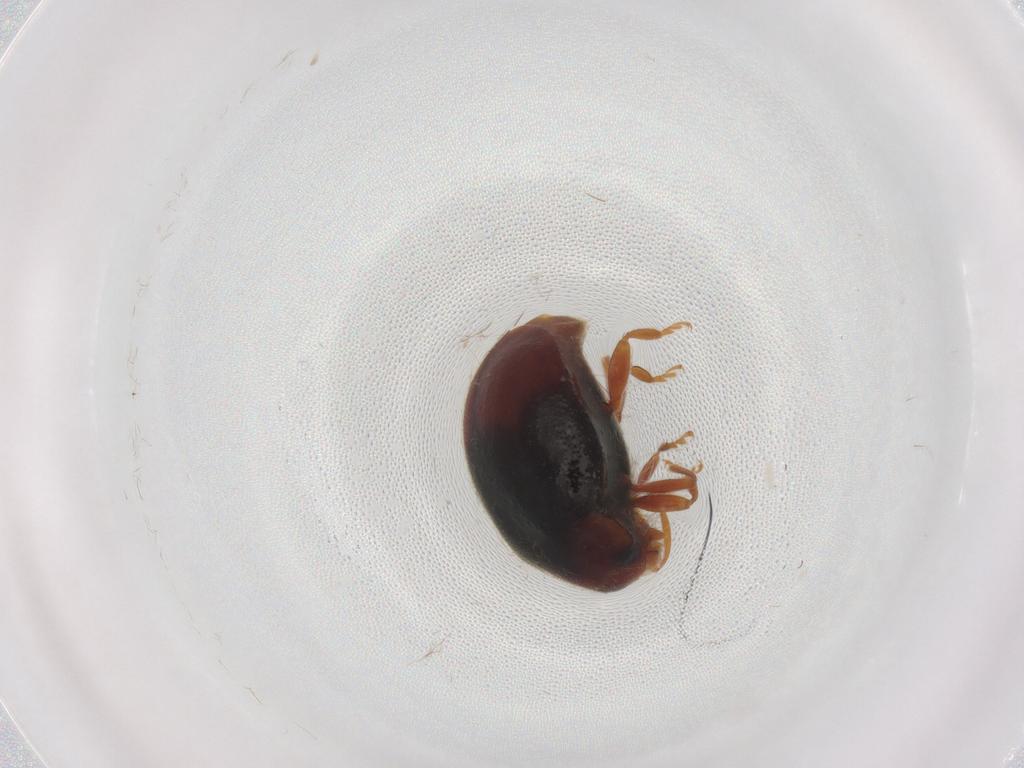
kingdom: Animalia
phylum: Arthropoda
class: Insecta
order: Coleoptera
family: Coccinellidae
